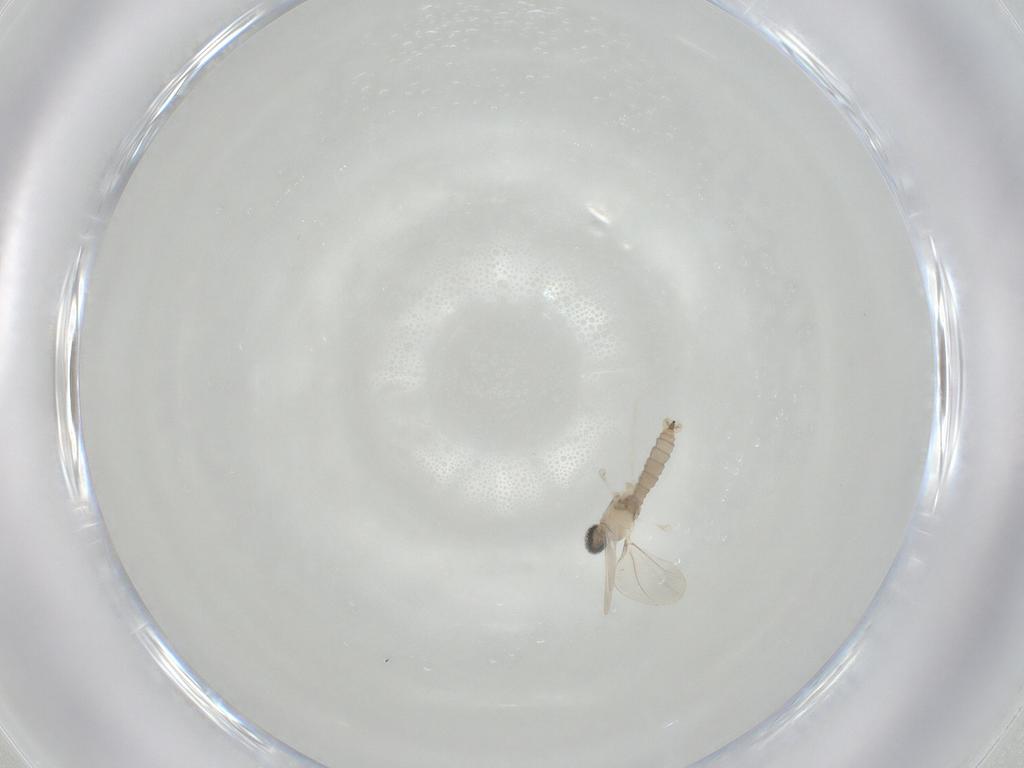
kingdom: Animalia
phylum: Arthropoda
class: Insecta
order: Diptera
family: Cecidomyiidae
